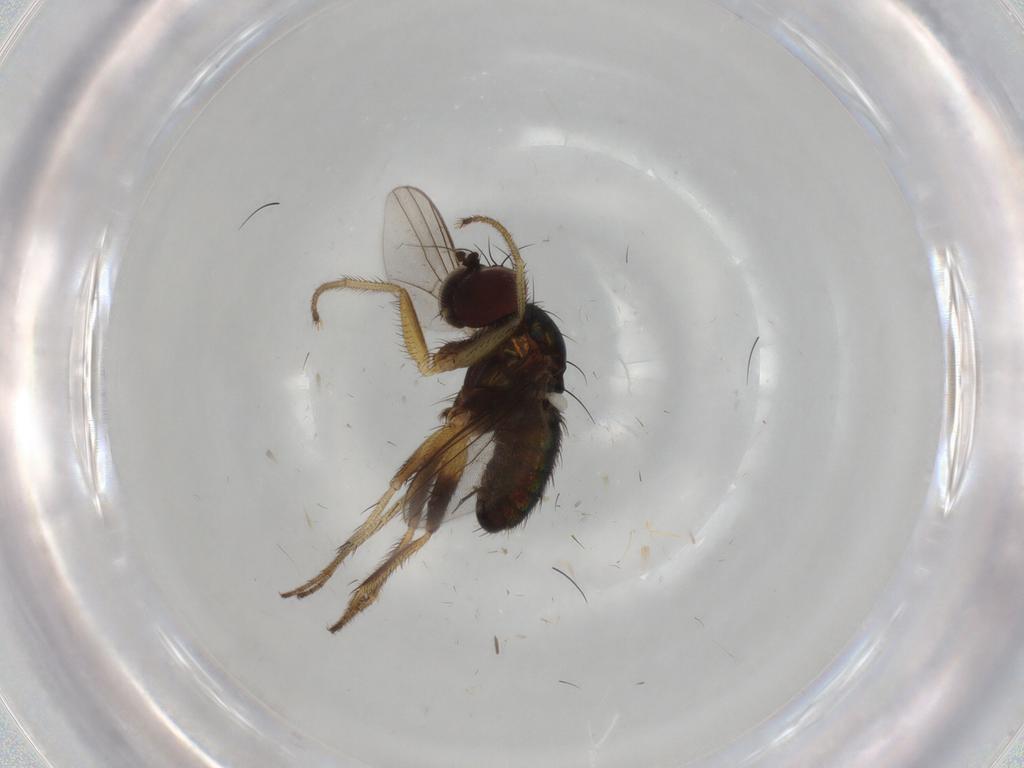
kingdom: Animalia
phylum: Arthropoda
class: Insecta
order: Diptera
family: Dolichopodidae
